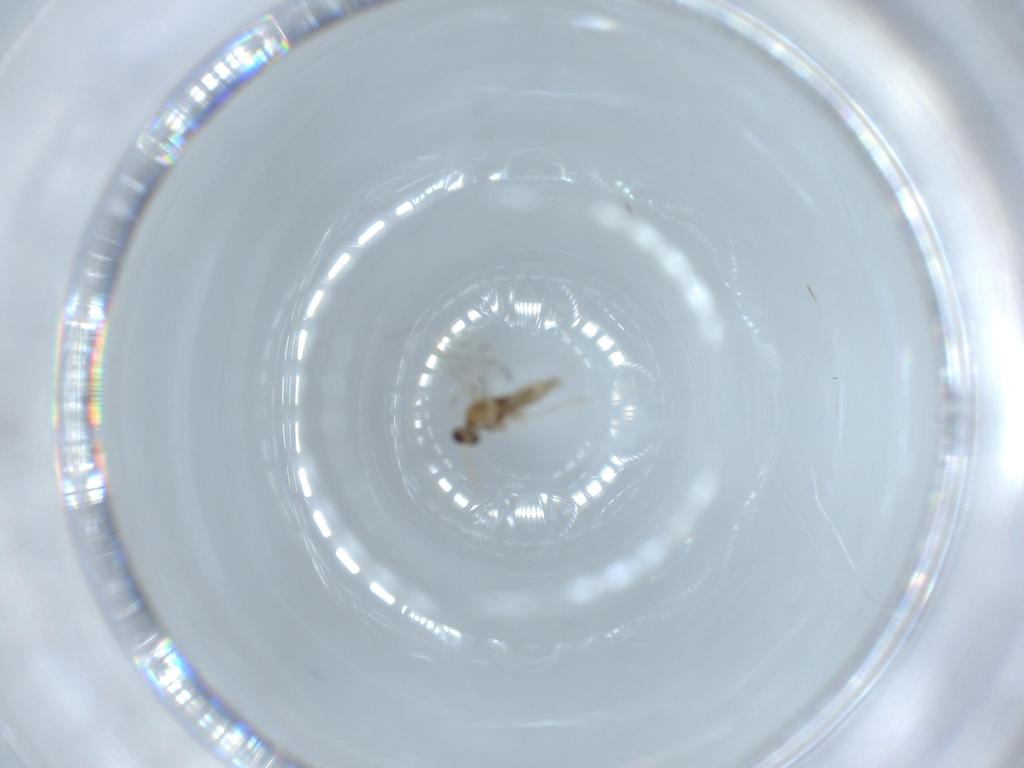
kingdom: Animalia
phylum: Arthropoda
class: Insecta
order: Diptera
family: Cecidomyiidae
